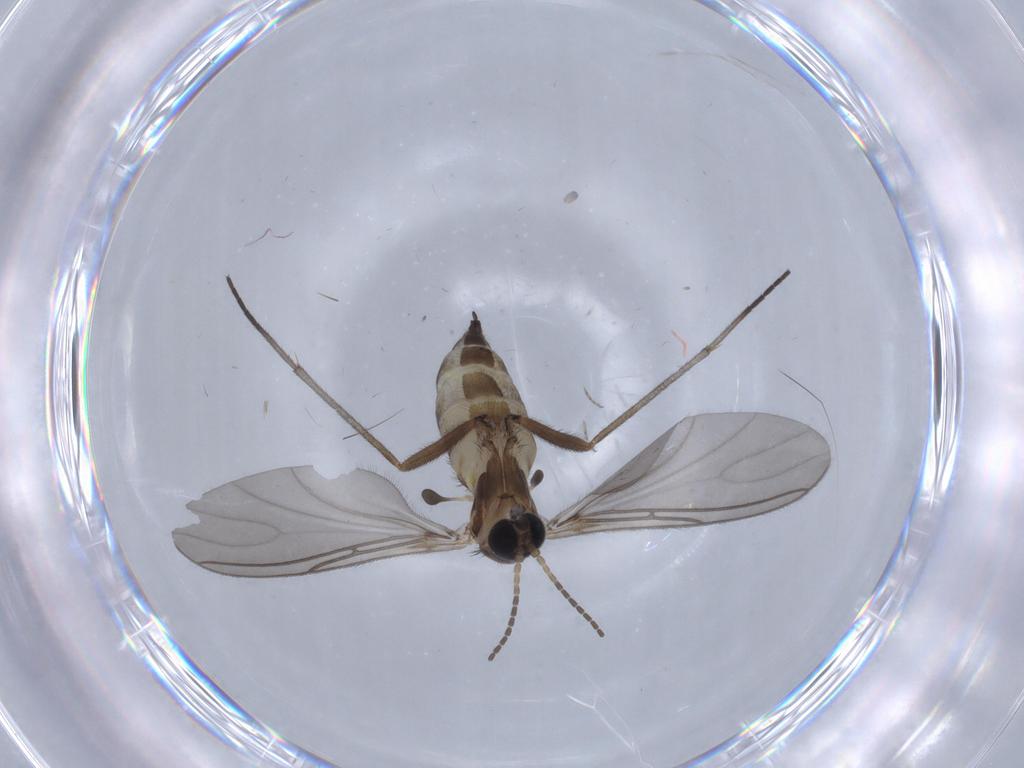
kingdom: Animalia
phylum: Arthropoda
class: Insecta
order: Diptera
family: Sciaridae
